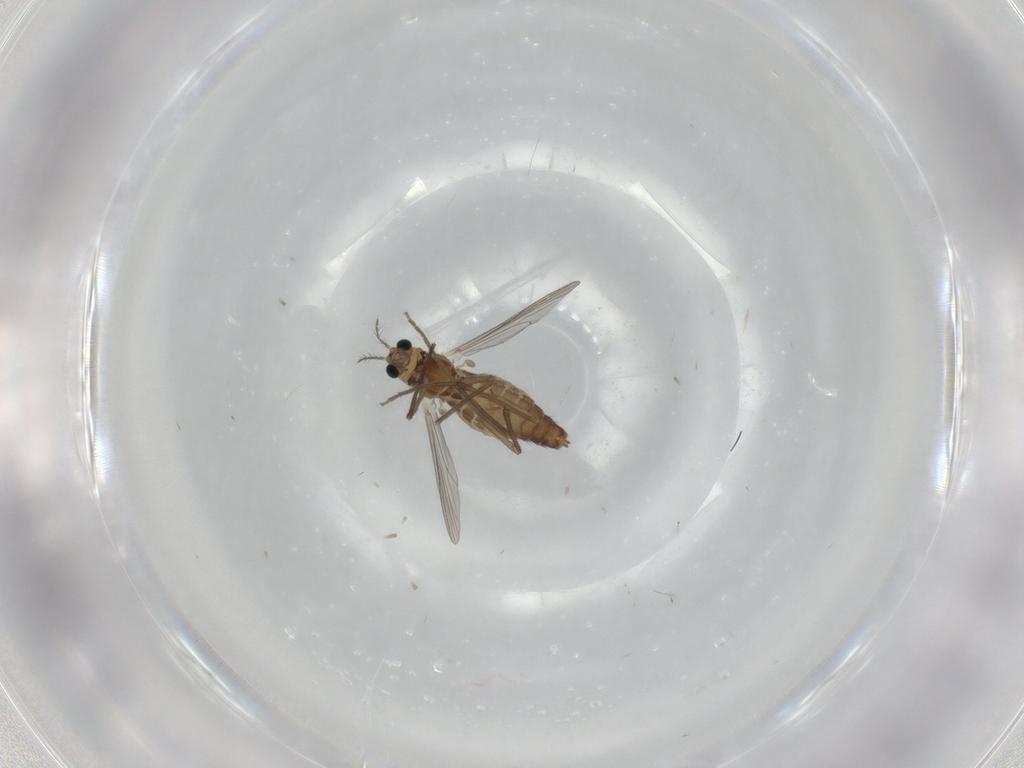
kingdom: Animalia
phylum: Arthropoda
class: Insecta
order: Diptera
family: Chironomidae
